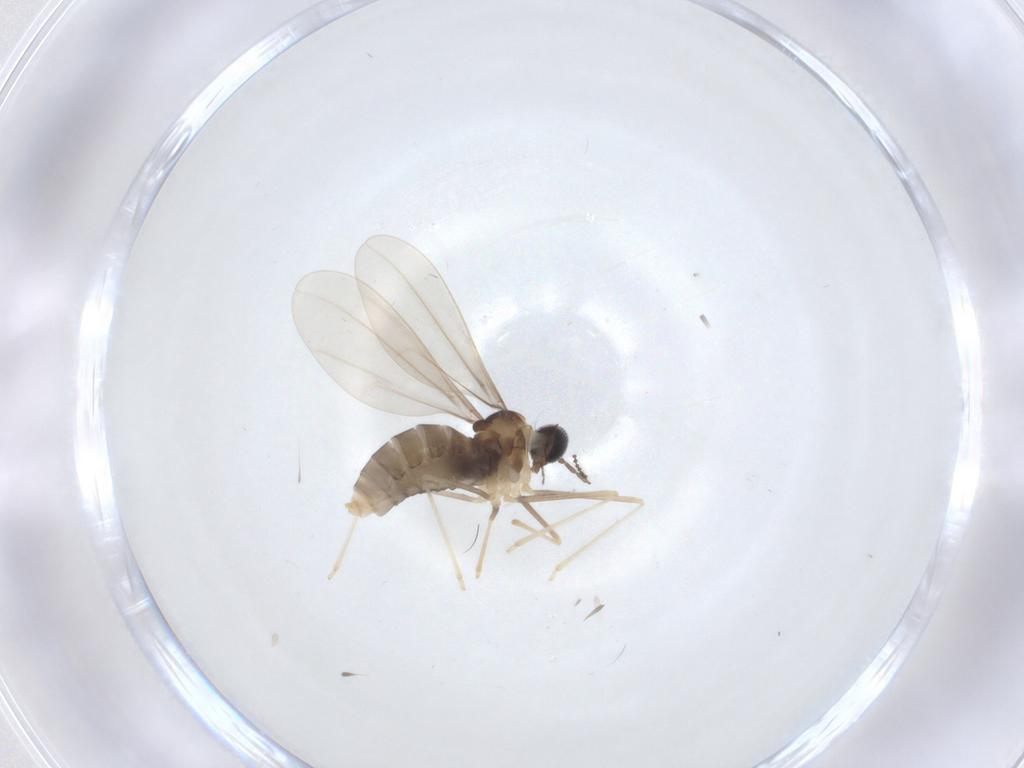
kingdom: Animalia
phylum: Arthropoda
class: Insecta
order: Diptera
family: Cecidomyiidae
